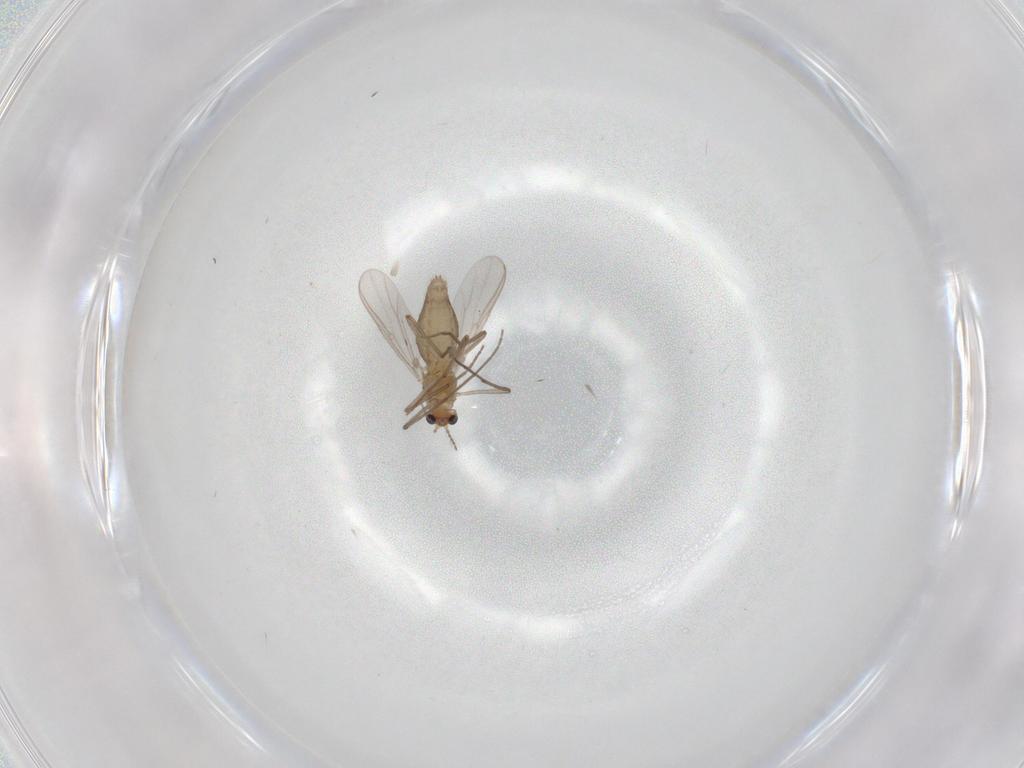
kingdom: Animalia
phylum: Arthropoda
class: Insecta
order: Diptera
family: Chironomidae
